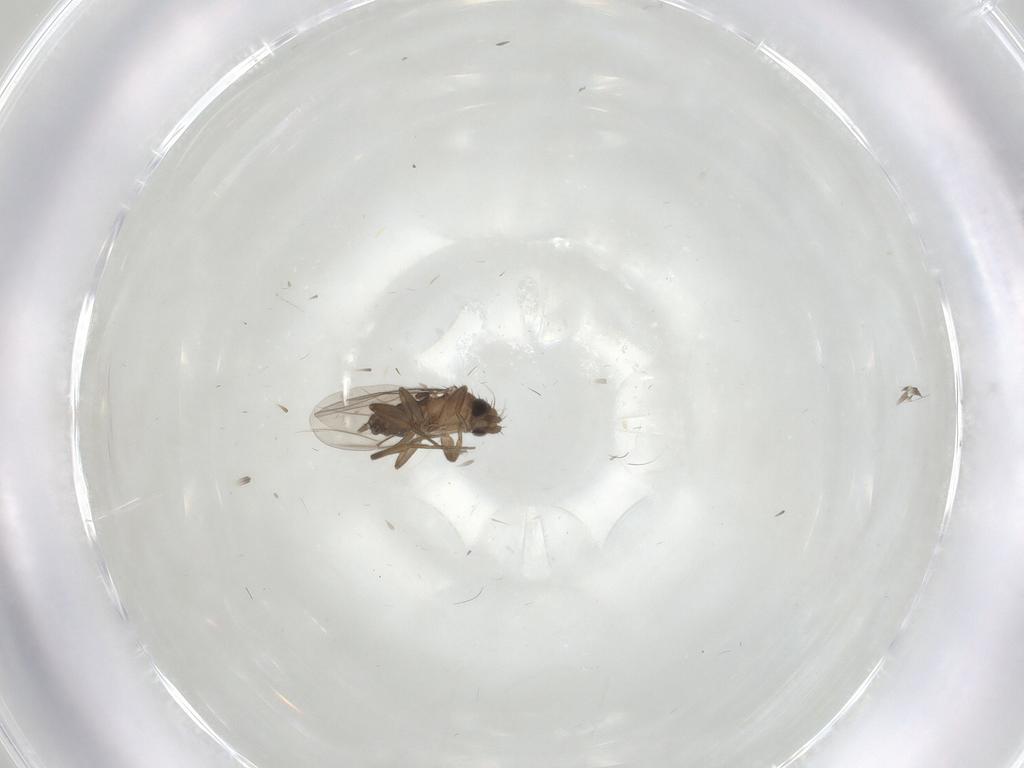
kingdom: Animalia
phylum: Arthropoda
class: Insecta
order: Diptera
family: Phoridae
